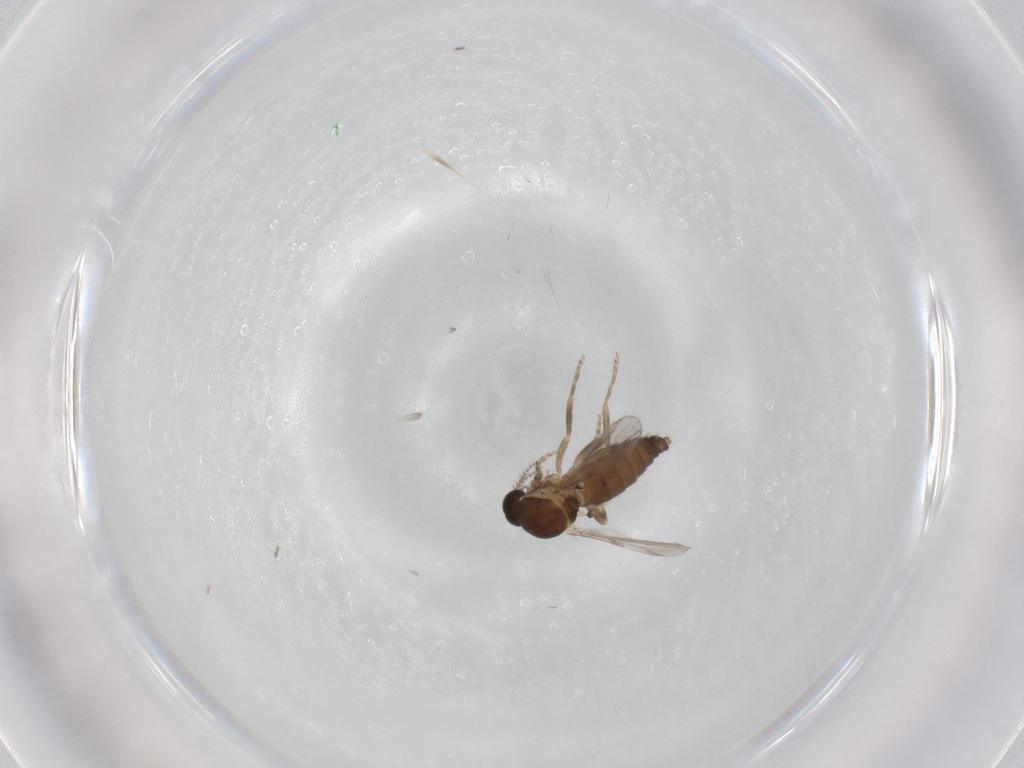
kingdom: Animalia
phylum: Arthropoda
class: Insecta
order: Diptera
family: Ceratopogonidae
